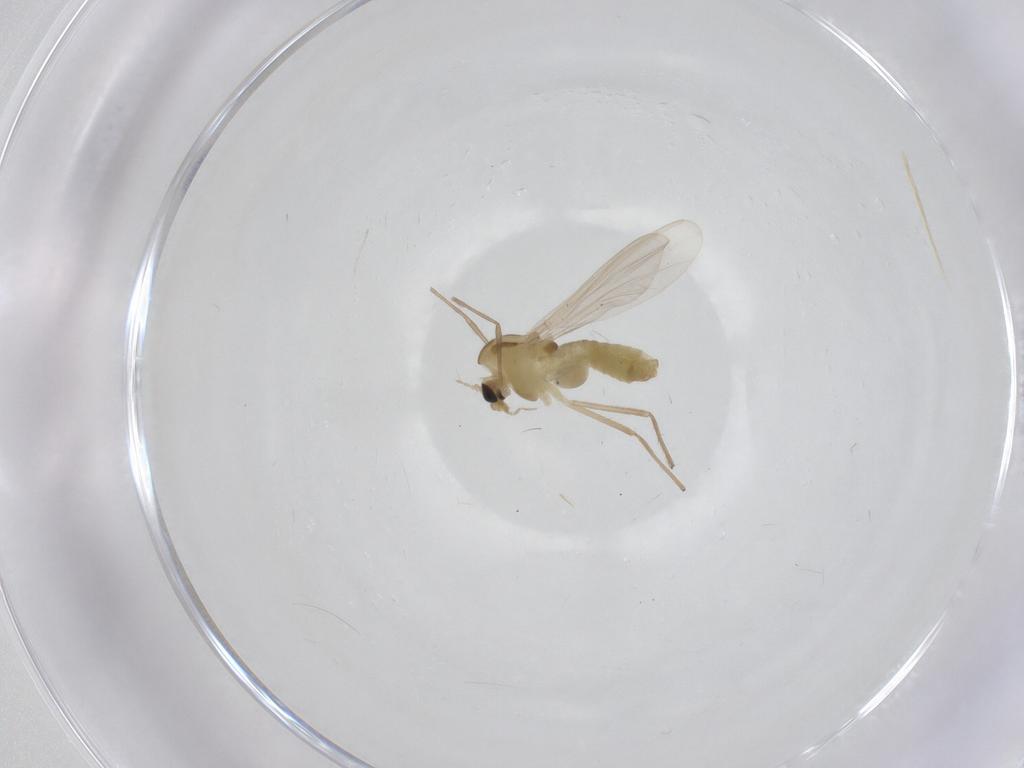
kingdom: Animalia
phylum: Arthropoda
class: Insecta
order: Diptera
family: Chironomidae
